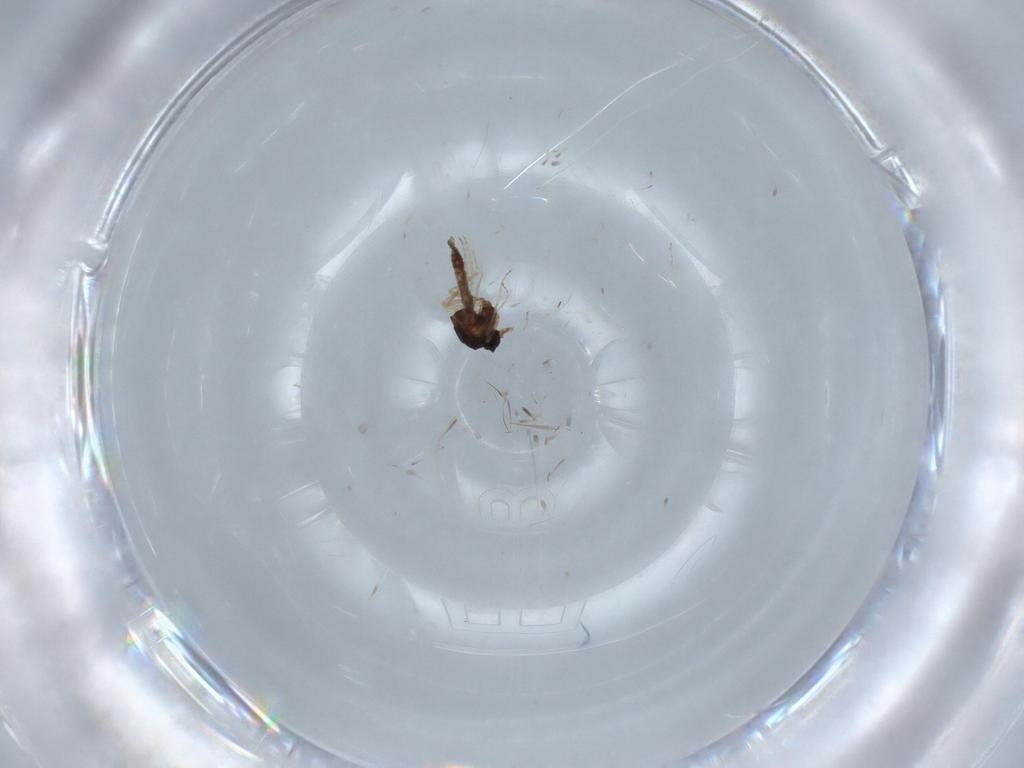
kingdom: Animalia
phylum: Arthropoda
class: Insecta
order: Diptera
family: Ceratopogonidae
